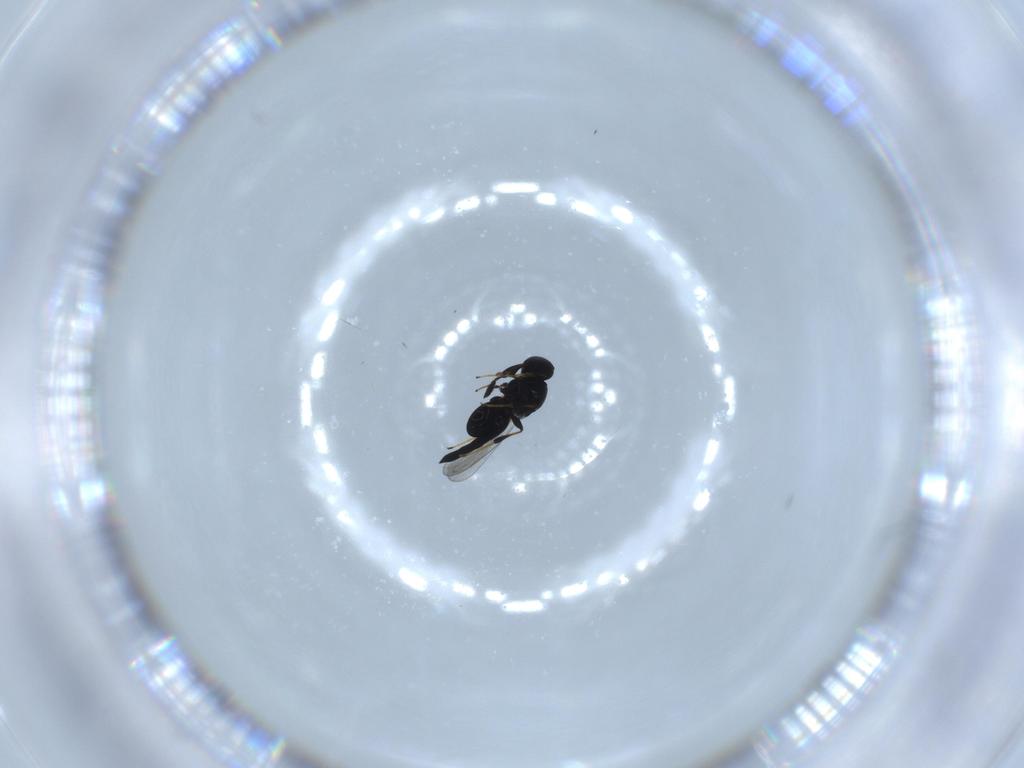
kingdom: Animalia
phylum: Arthropoda
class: Insecta
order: Hymenoptera
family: Platygastridae
